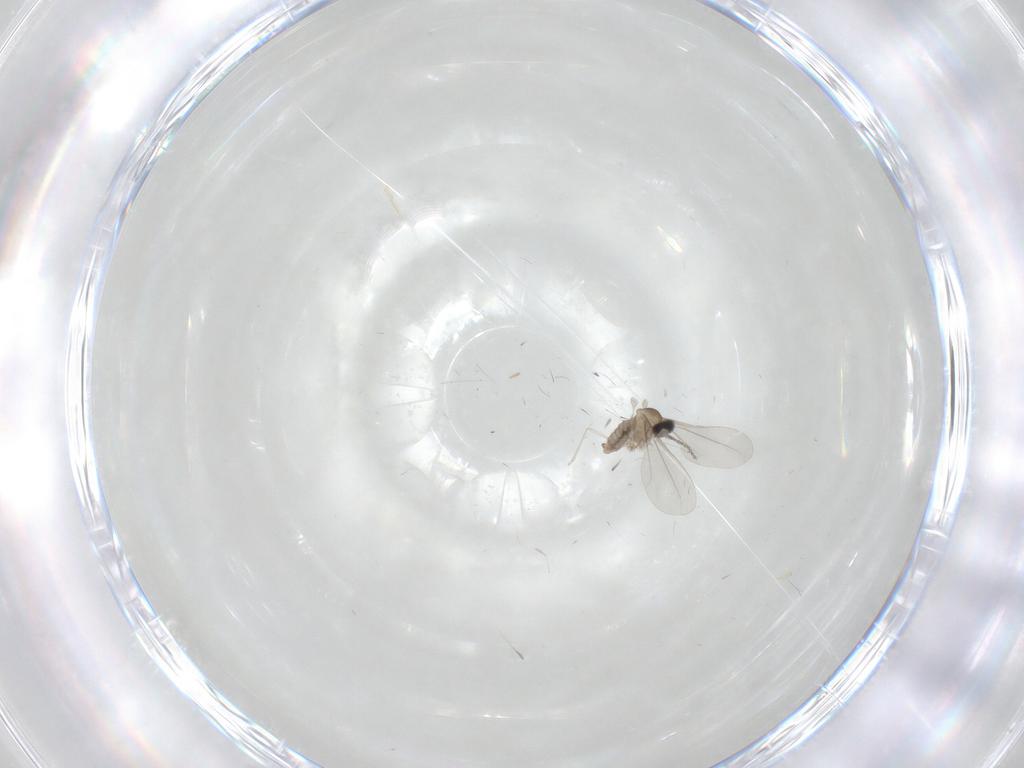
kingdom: Animalia
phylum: Arthropoda
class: Insecta
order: Diptera
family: Cecidomyiidae
